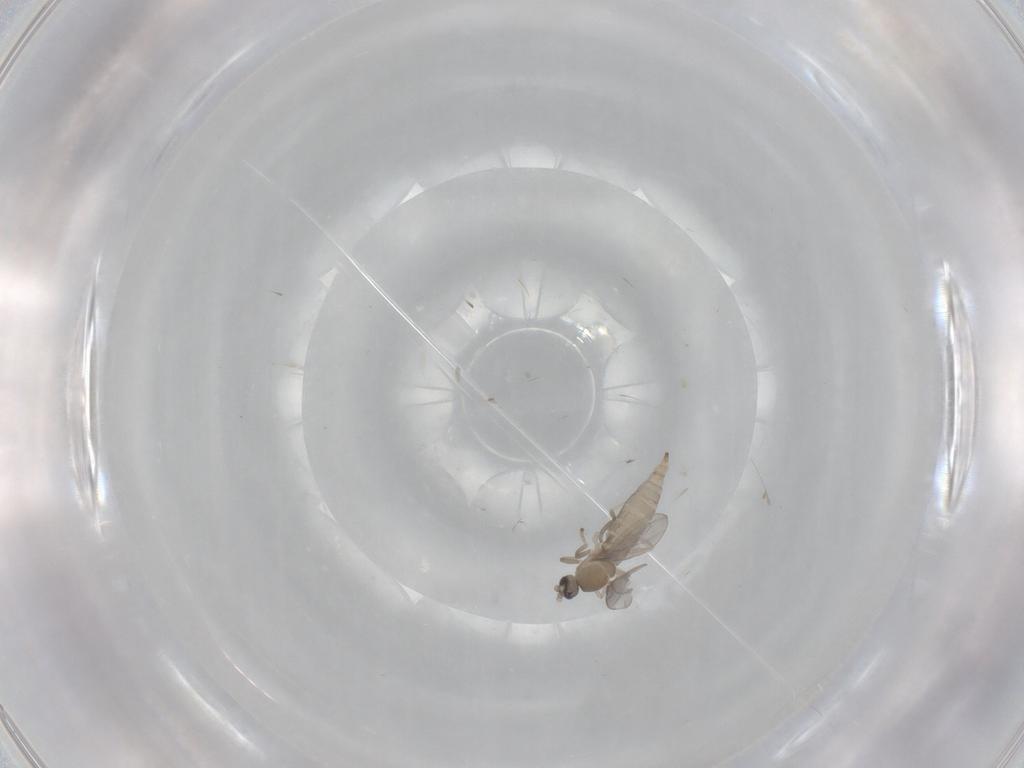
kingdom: Animalia
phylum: Arthropoda
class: Insecta
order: Diptera
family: Cecidomyiidae
